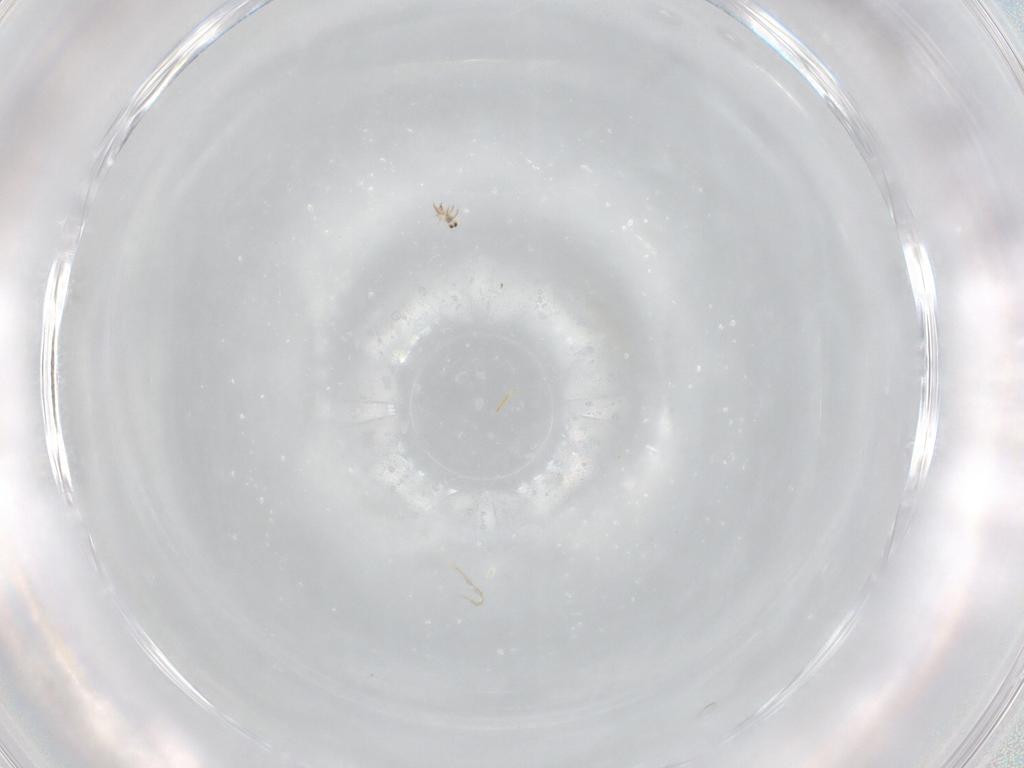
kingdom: Animalia
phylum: Arthropoda
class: Arachnida
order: Sarcoptiformes
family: Humerobatidae
